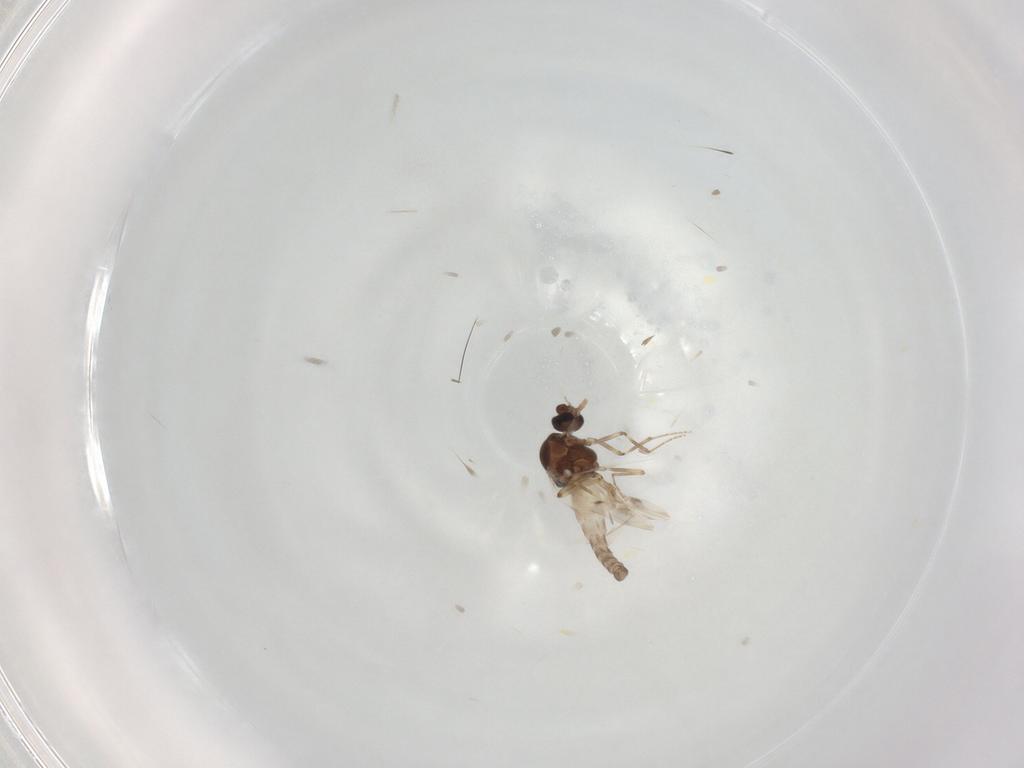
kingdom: Animalia
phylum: Arthropoda
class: Insecta
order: Diptera
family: Ceratopogonidae
